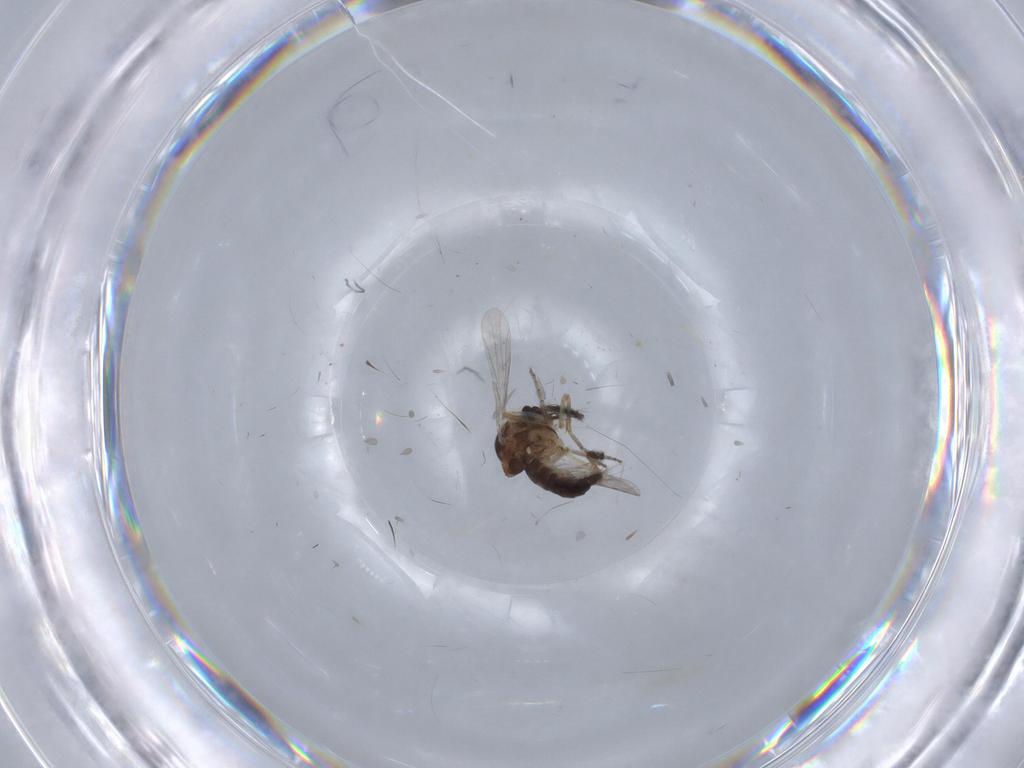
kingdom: Animalia
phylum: Arthropoda
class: Insecta
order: Diptera
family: Ceratopogonidae
